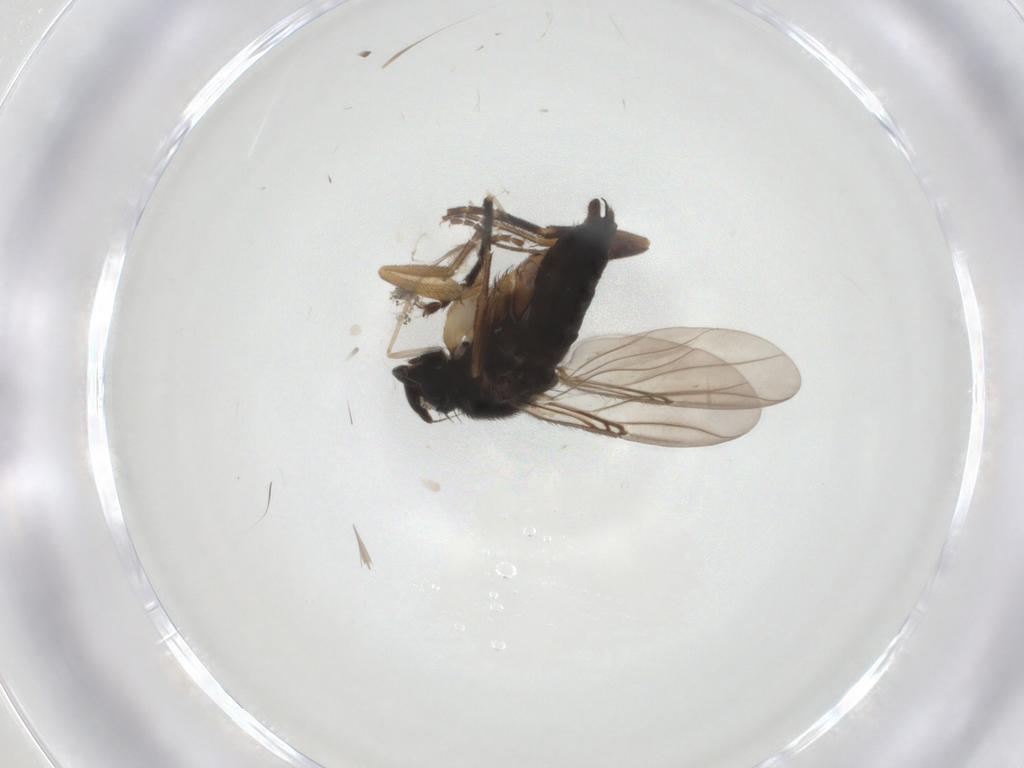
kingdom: Animalia
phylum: Arthropoda
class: Insecta
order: Diptera
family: Phoridae
